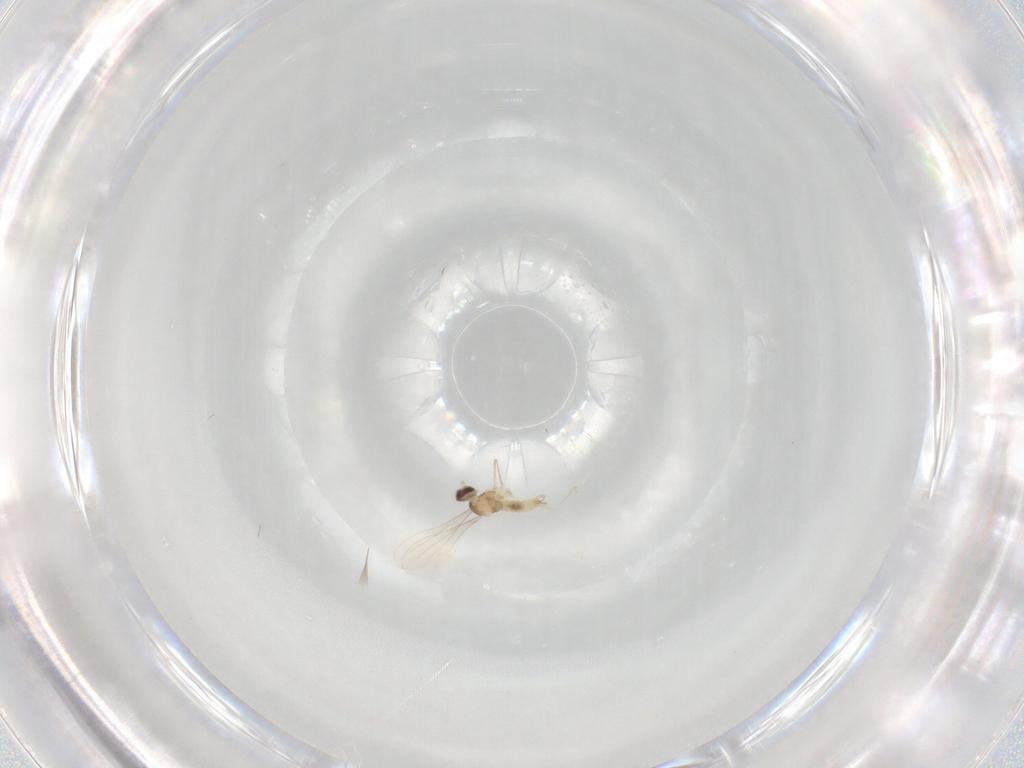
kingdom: Animalia
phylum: Arthropoda
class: Insecta
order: Diptera
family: Cecidomyiidae
